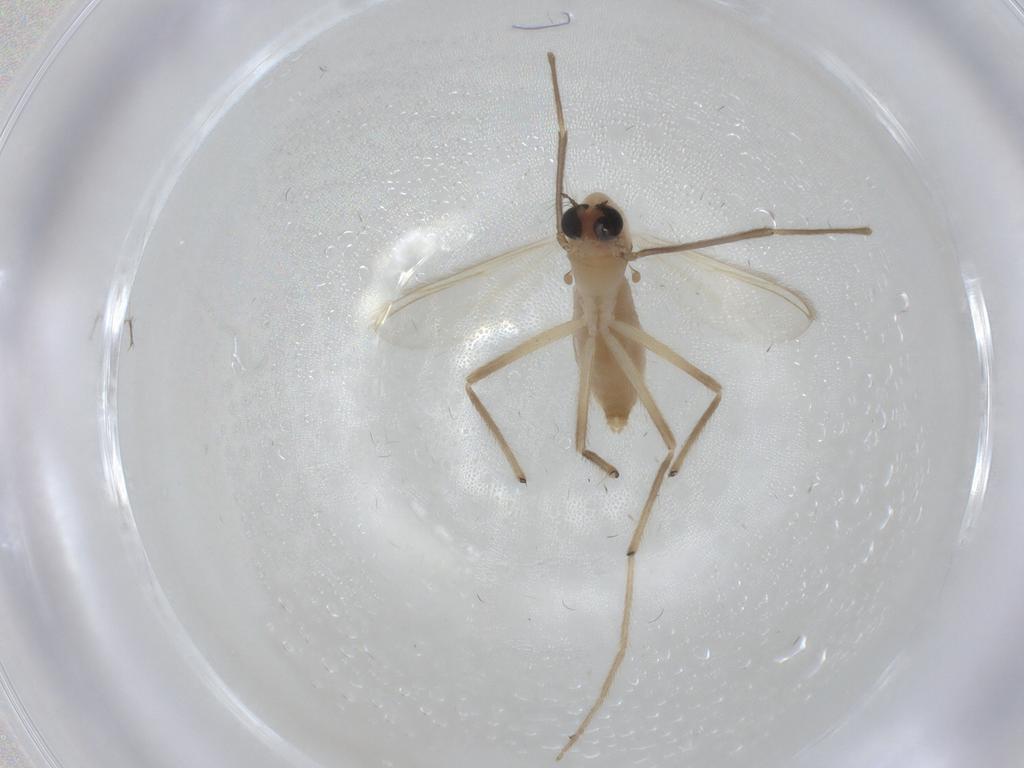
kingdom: Animalia
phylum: Arthropoda
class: Insecta
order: Diptera
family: Chironomidae
